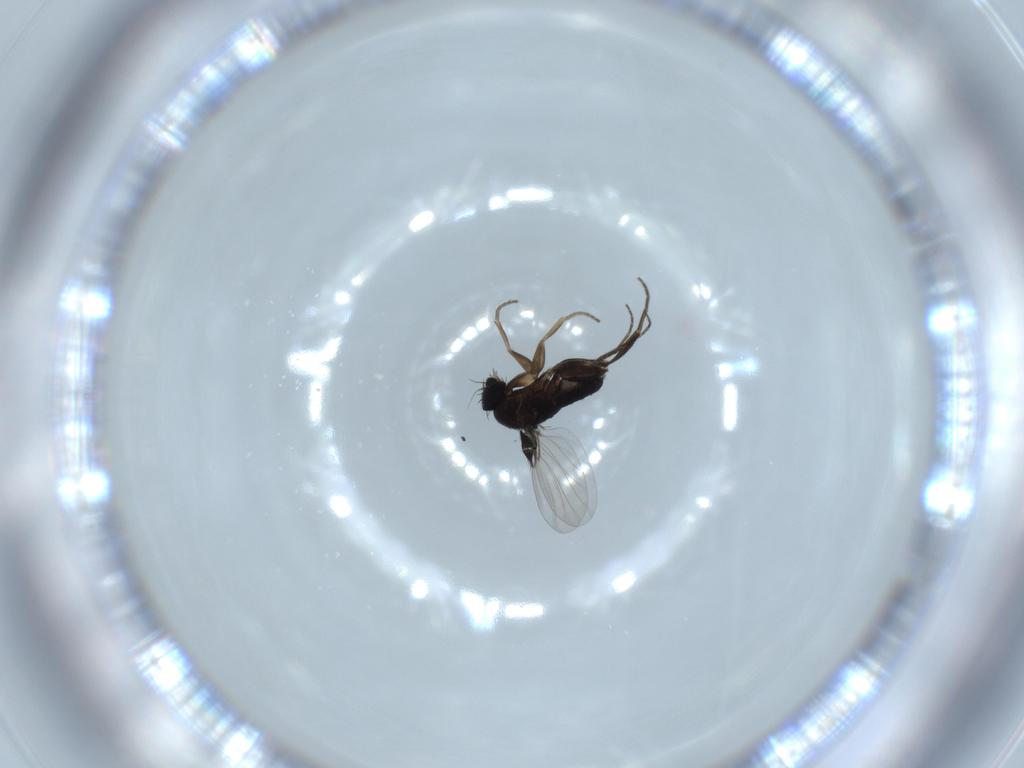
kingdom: Animalia
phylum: Arthropoda
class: Insecta
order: Diptera
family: Phoridae
